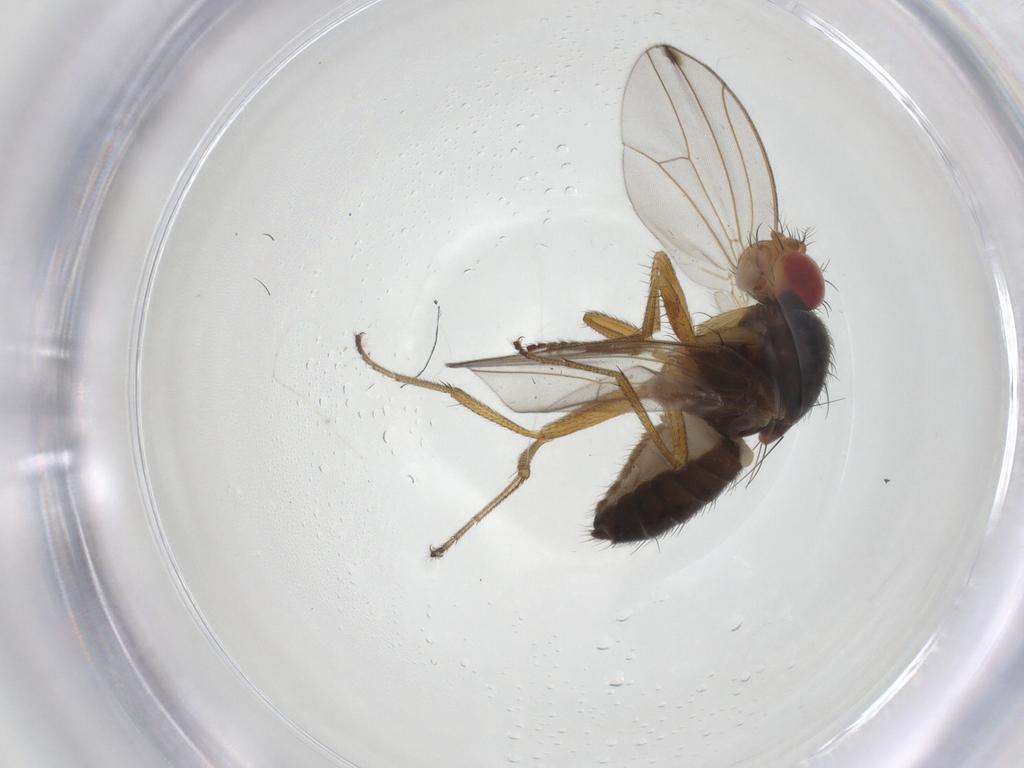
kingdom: Animalia
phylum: Arthropoda
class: Insecta
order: Diptera
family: Drosophilidae
